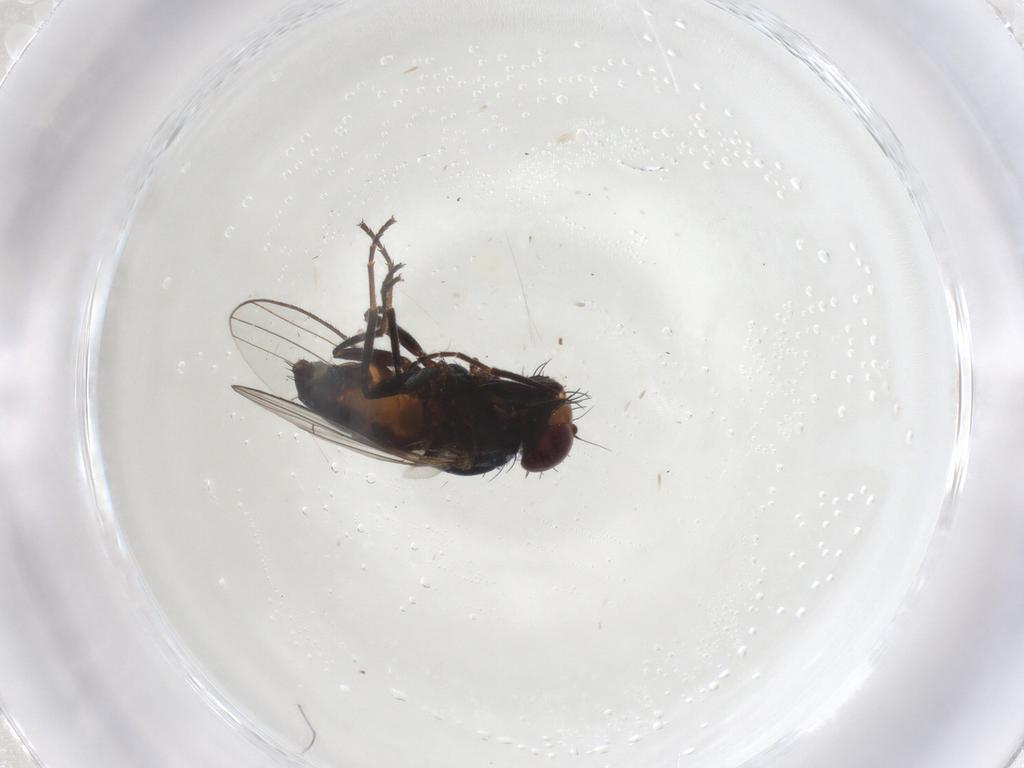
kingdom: Animalia
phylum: Arthropoda
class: Insecta
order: Diptera
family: Carnidae
